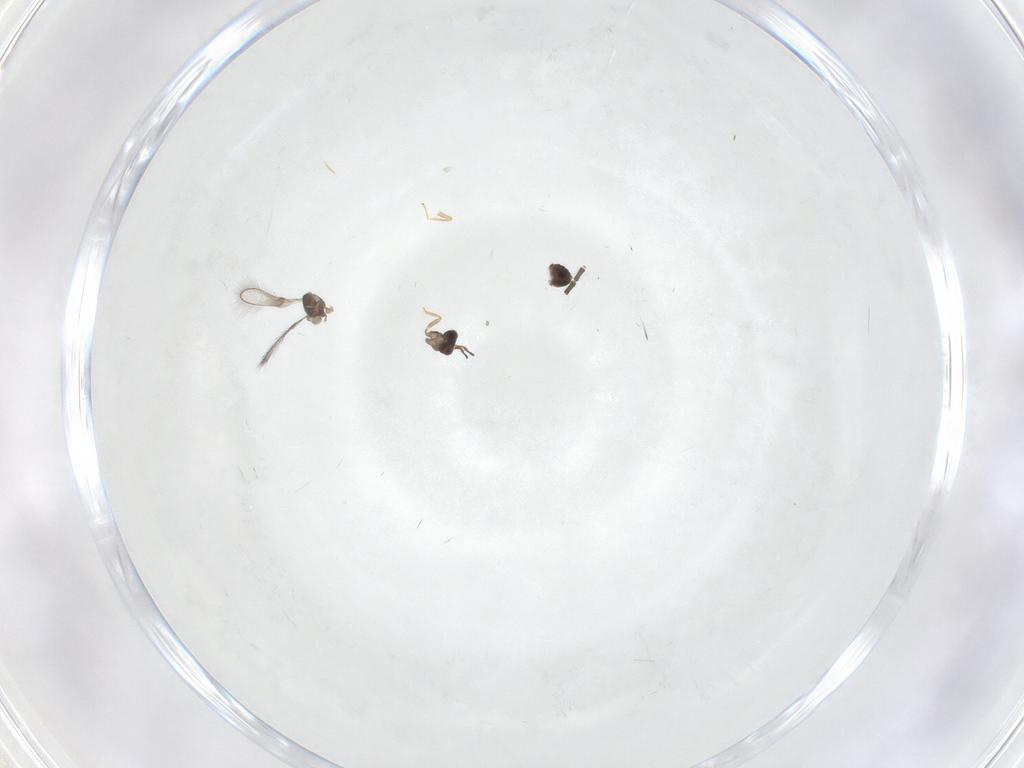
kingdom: Animalia
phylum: Arthropoda
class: Insecta
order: Hymenoptera
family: Mymaridae
